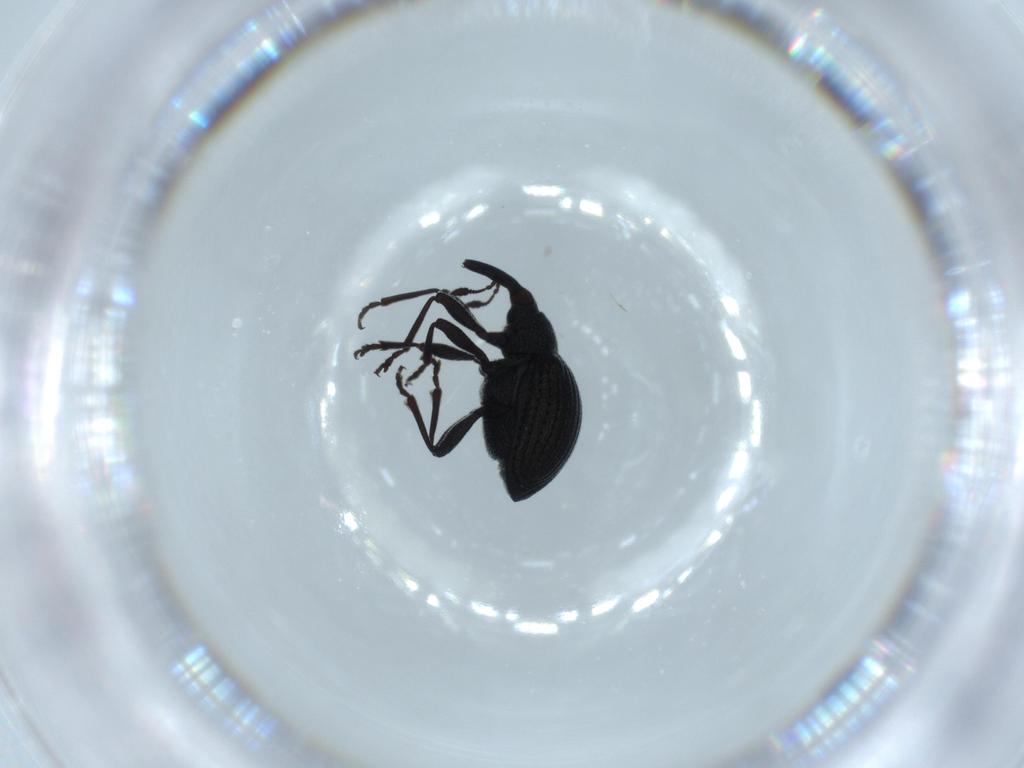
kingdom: Animalia
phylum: Arthropoda
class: Insecta
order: Coleoptera
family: Brentidae
